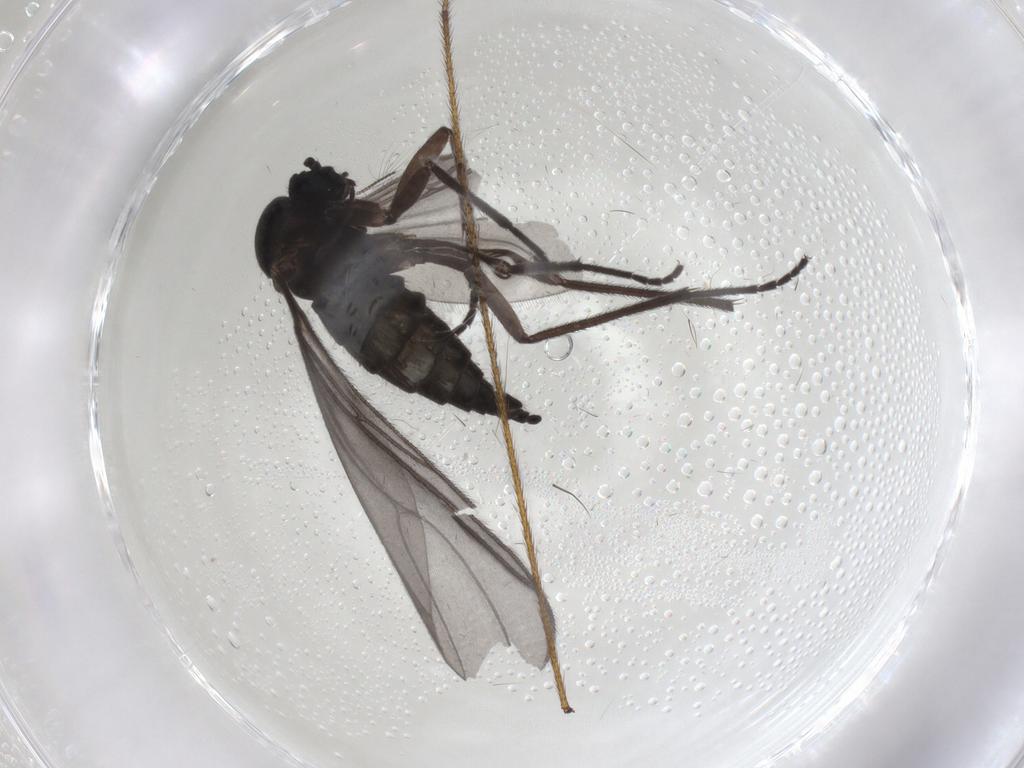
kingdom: Animalia
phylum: Arthropoda
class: Insecta
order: Diptera
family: Sciaridae
